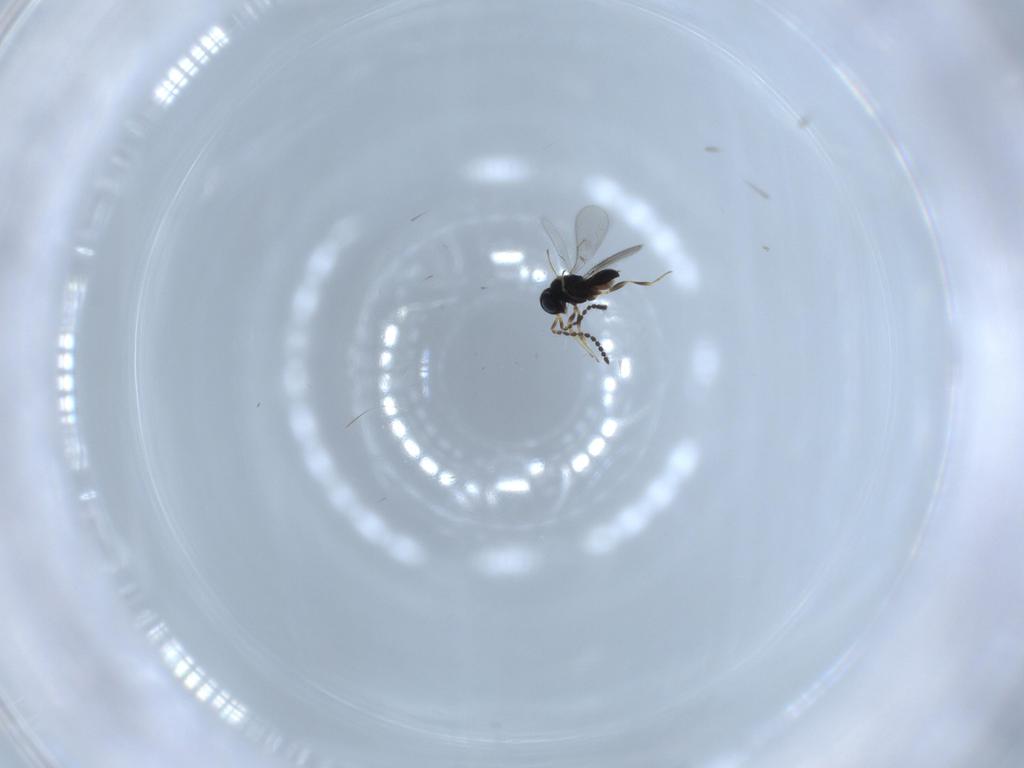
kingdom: Animalia
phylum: Arthropoda
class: Insecta
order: Hymenoptera
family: Scelionidae
